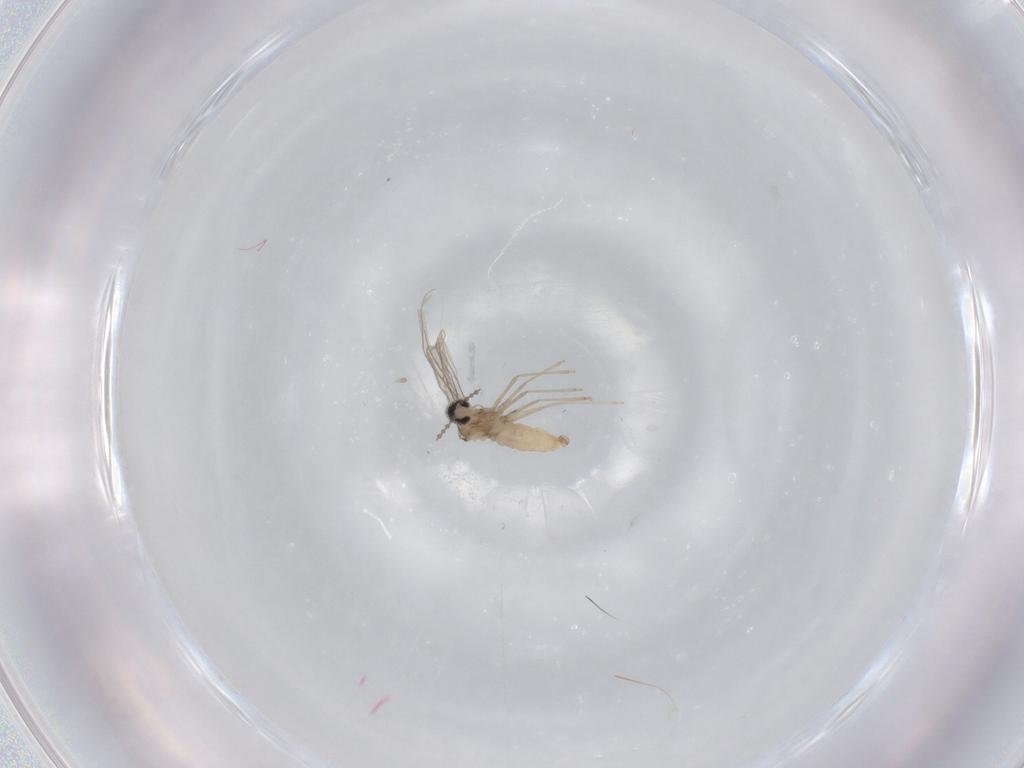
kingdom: Animalia
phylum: Arthropoda
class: Insecta
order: Diptera
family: Cecidomyiidae
